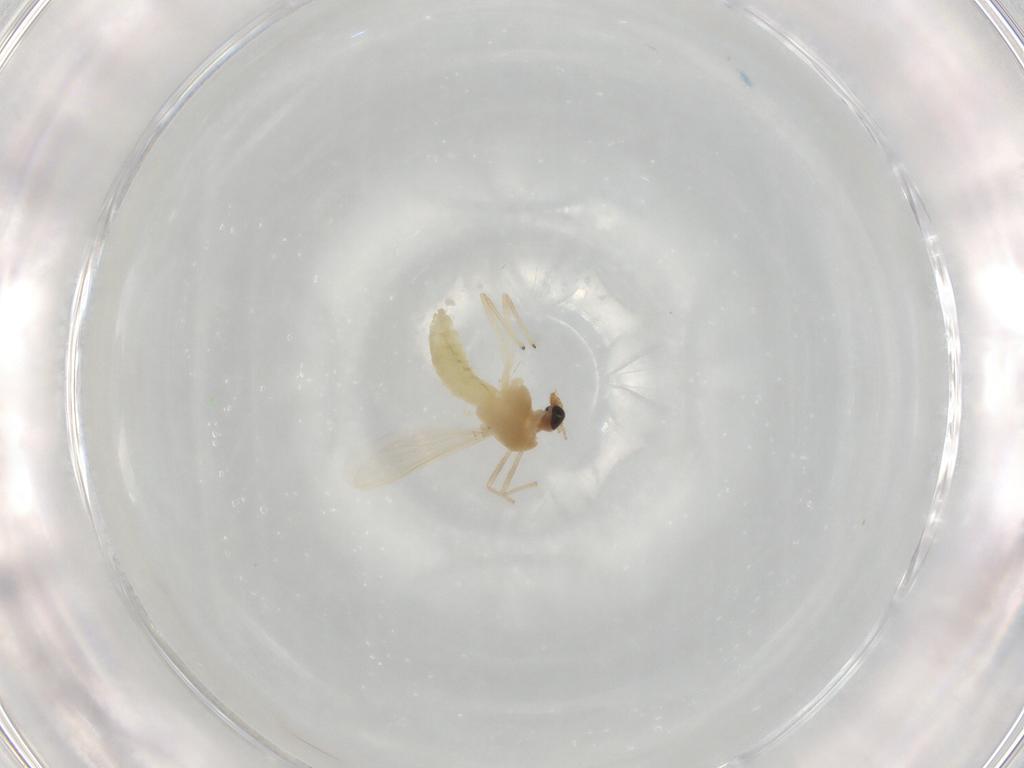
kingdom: Animalia
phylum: Arthropoda
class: Insecta
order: Diptera
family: Chironomidae
